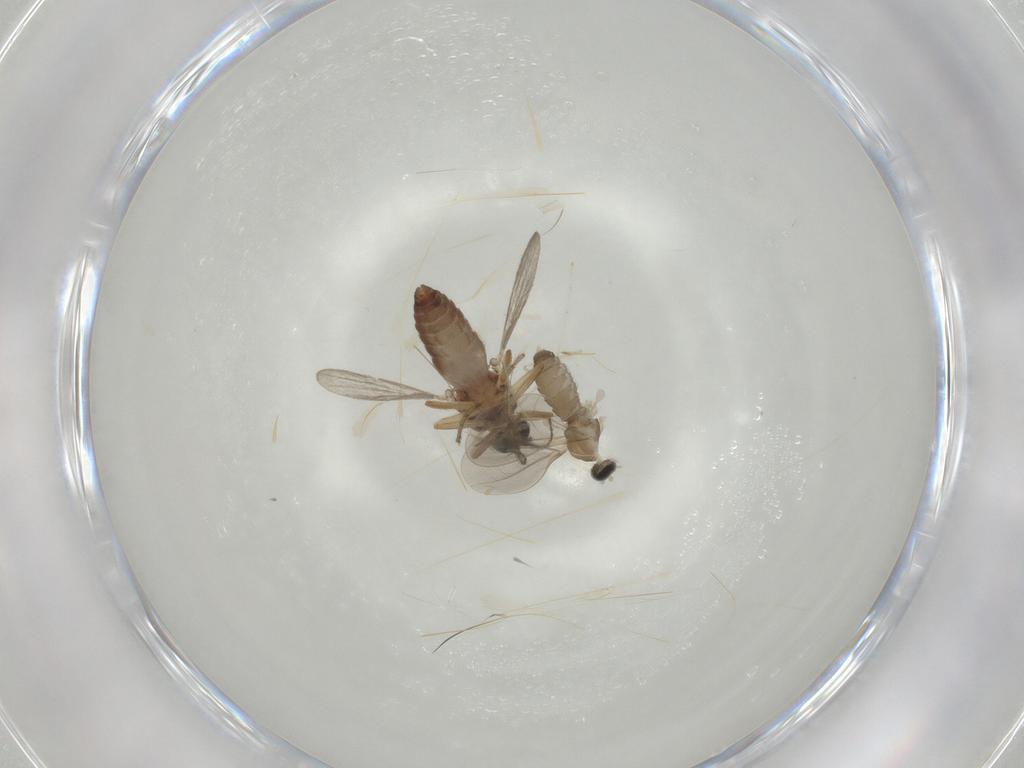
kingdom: Animalia
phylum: Arthropoda
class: Insecta
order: Diptera
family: Cecidomyiidae
